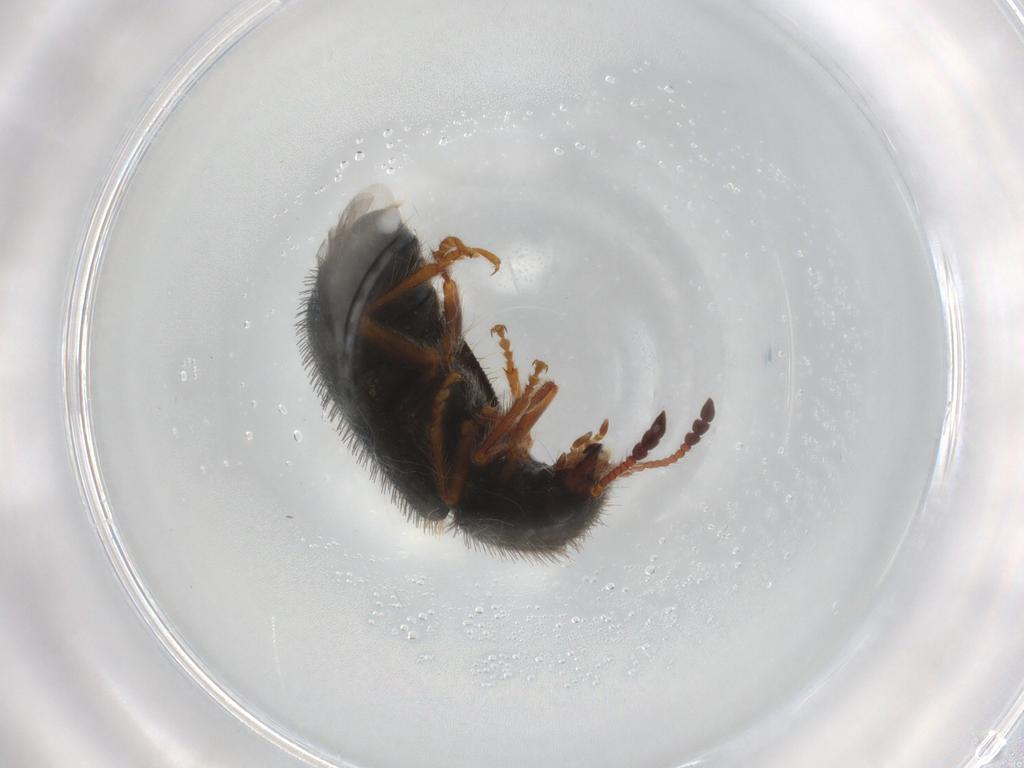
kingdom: Animalia
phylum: Arthropoda
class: Insecta
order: Coleoptera
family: Cleridae
